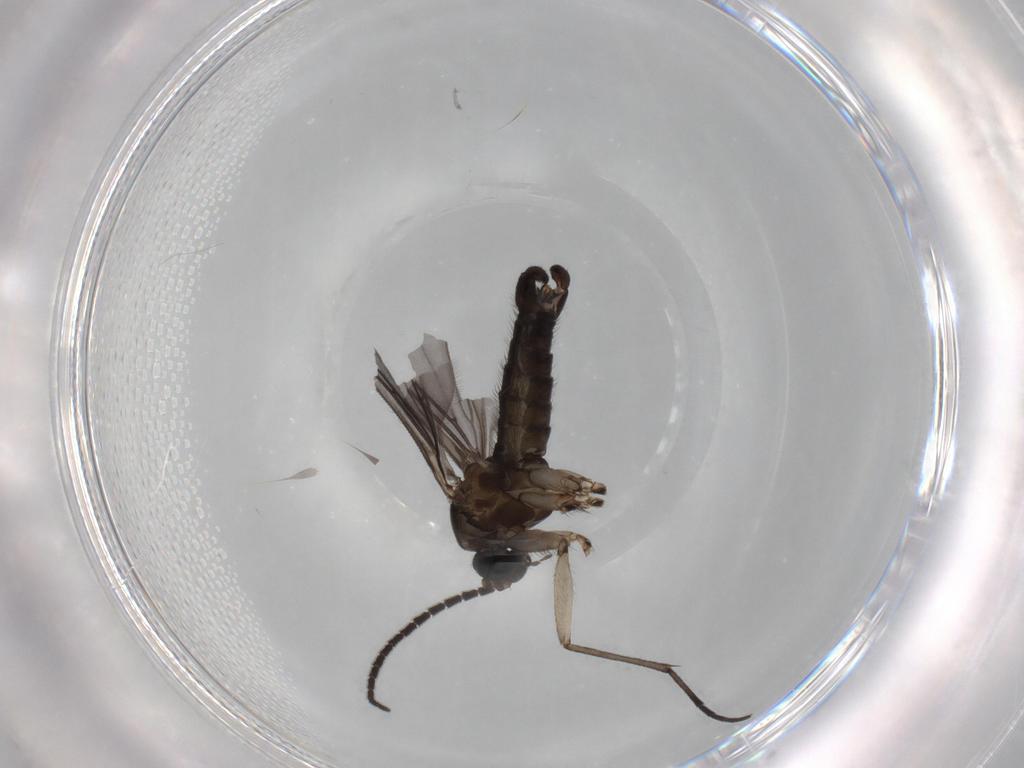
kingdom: Animalia
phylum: Arthropoda
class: Insecta
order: Diptera
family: Sciaridae
